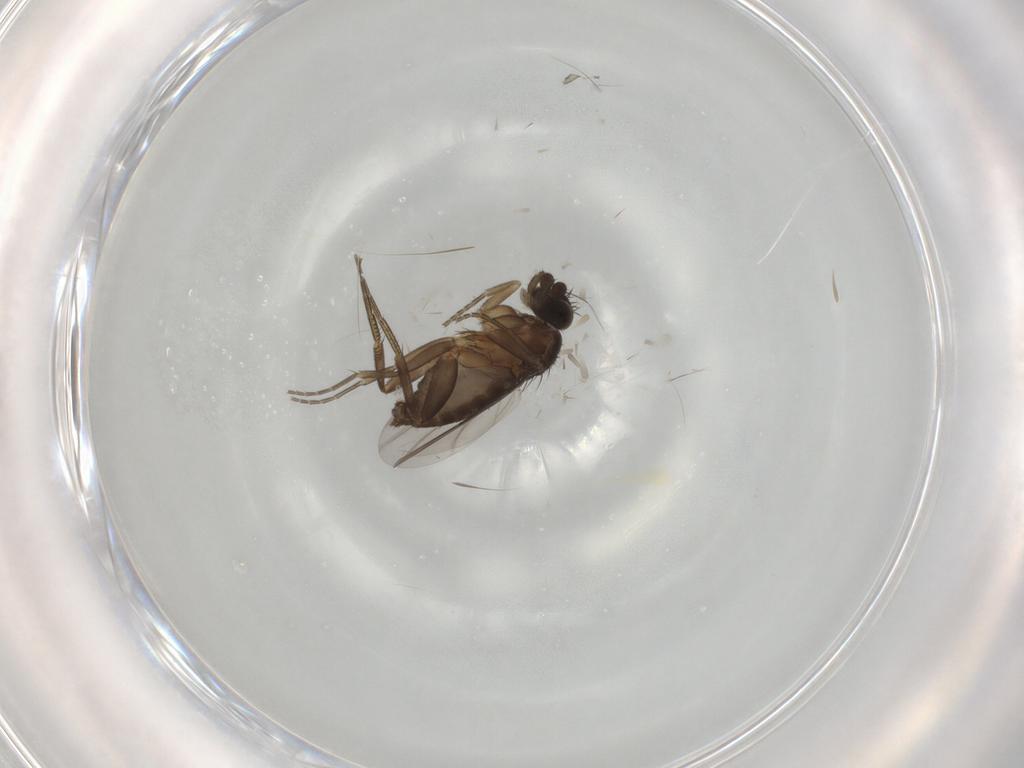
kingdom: Animalia
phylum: Arthropoda
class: Insecta
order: Diptera
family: Phoridae
